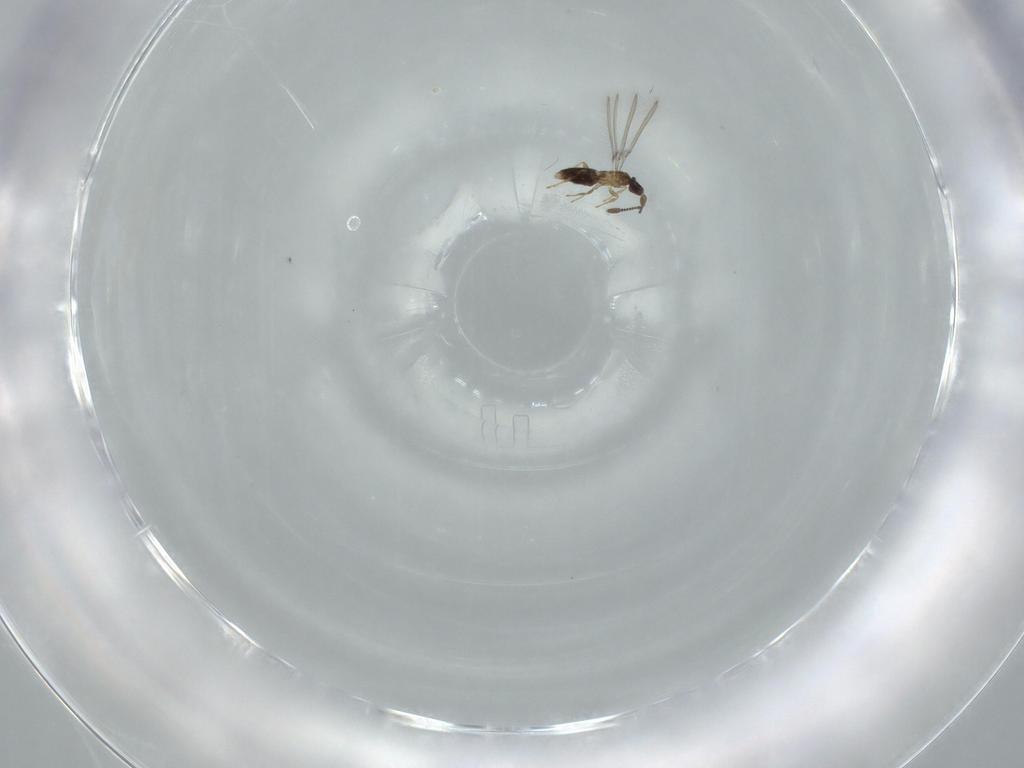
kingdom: Animalia
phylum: Arthropoda
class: Insecta
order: Hymenoptera
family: Mymaridae
